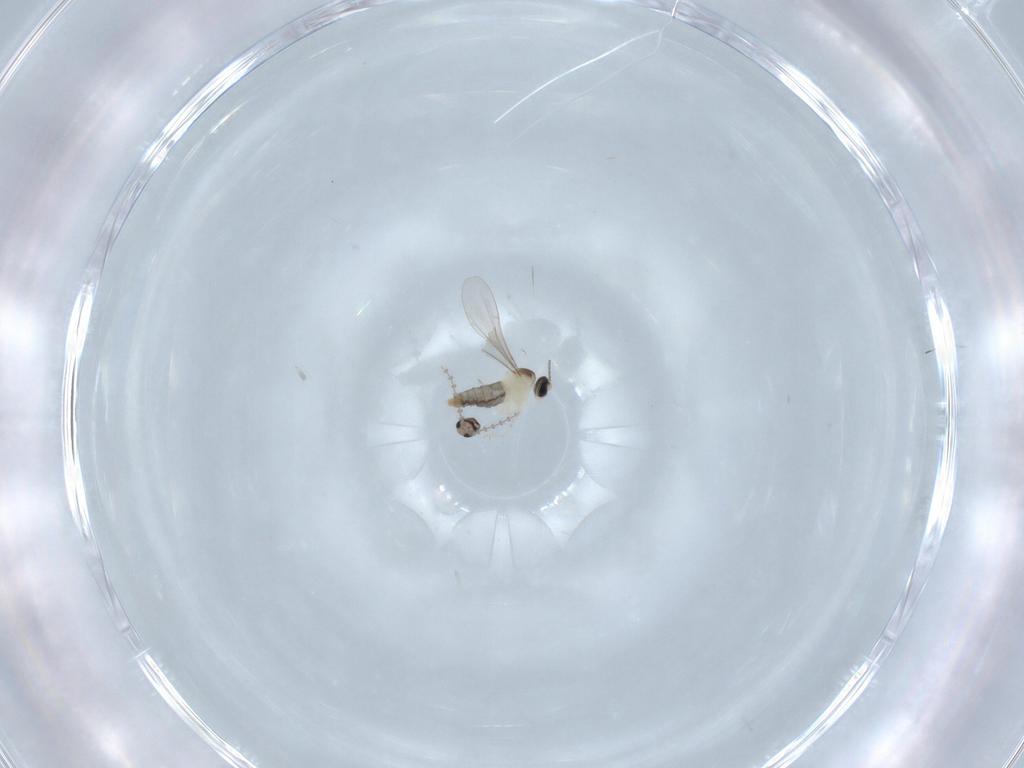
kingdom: Animalia
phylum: Arthropoda
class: Insecta
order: Diptera
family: Cecidomyiidae
